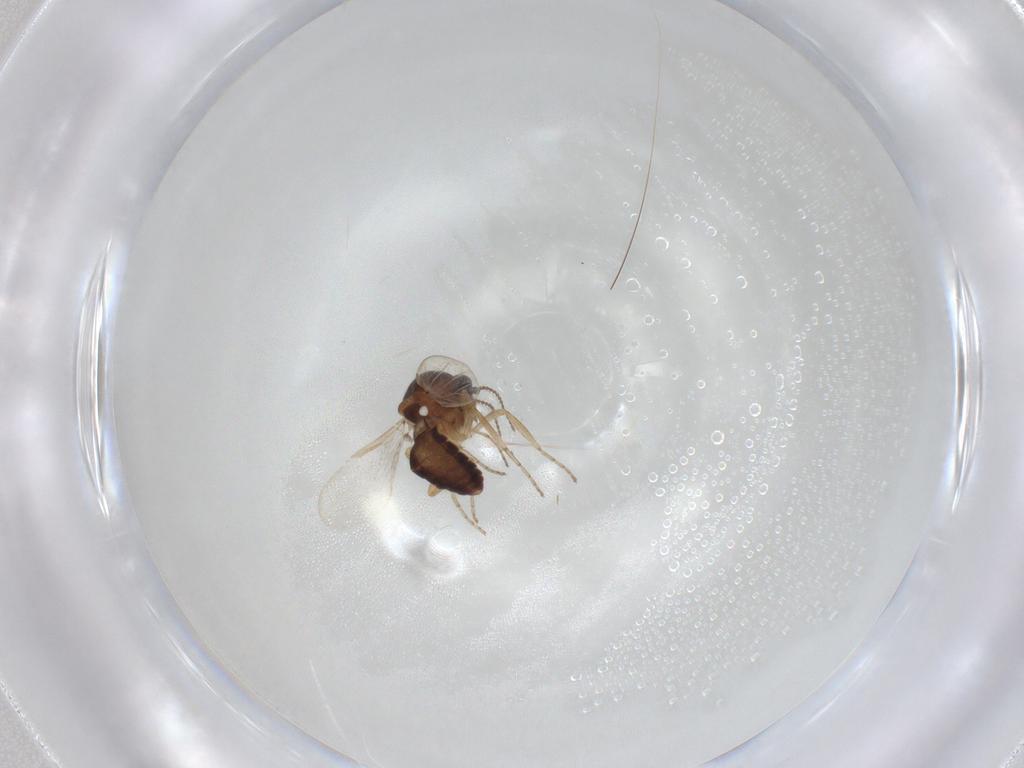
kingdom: Animalia
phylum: Arthropoda
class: Insecta
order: Diptera
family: Ceratopogonidae
